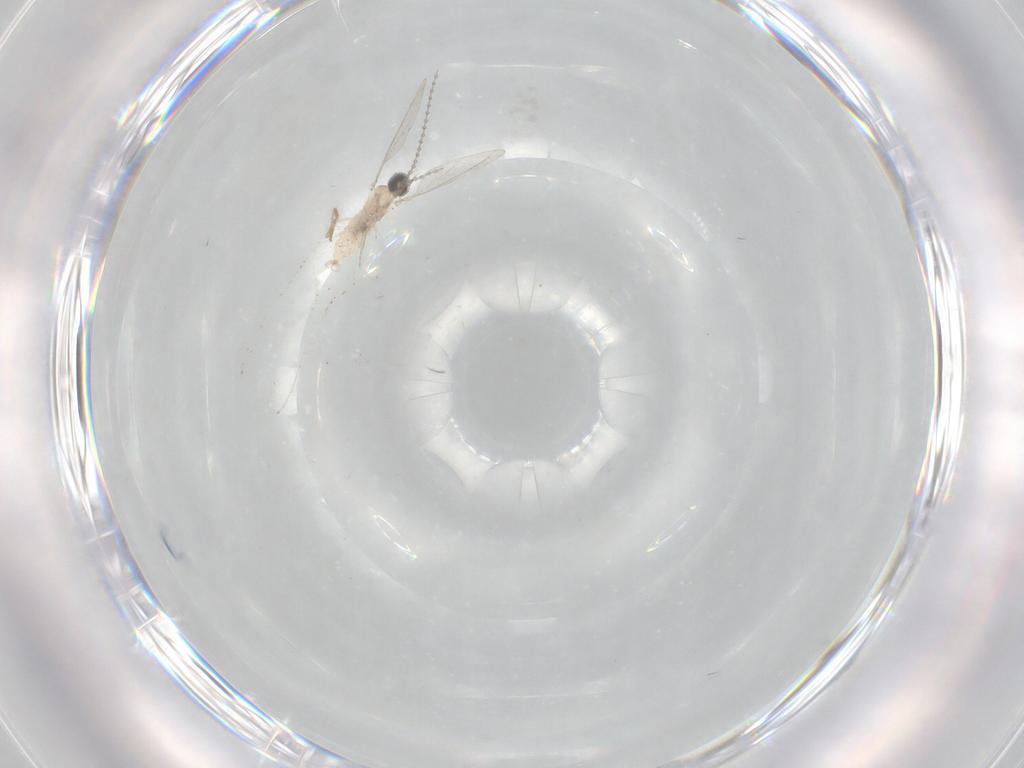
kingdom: Animalia
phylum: Arthropoda
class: Insecta
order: Diptera
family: Cecidomyiidae
